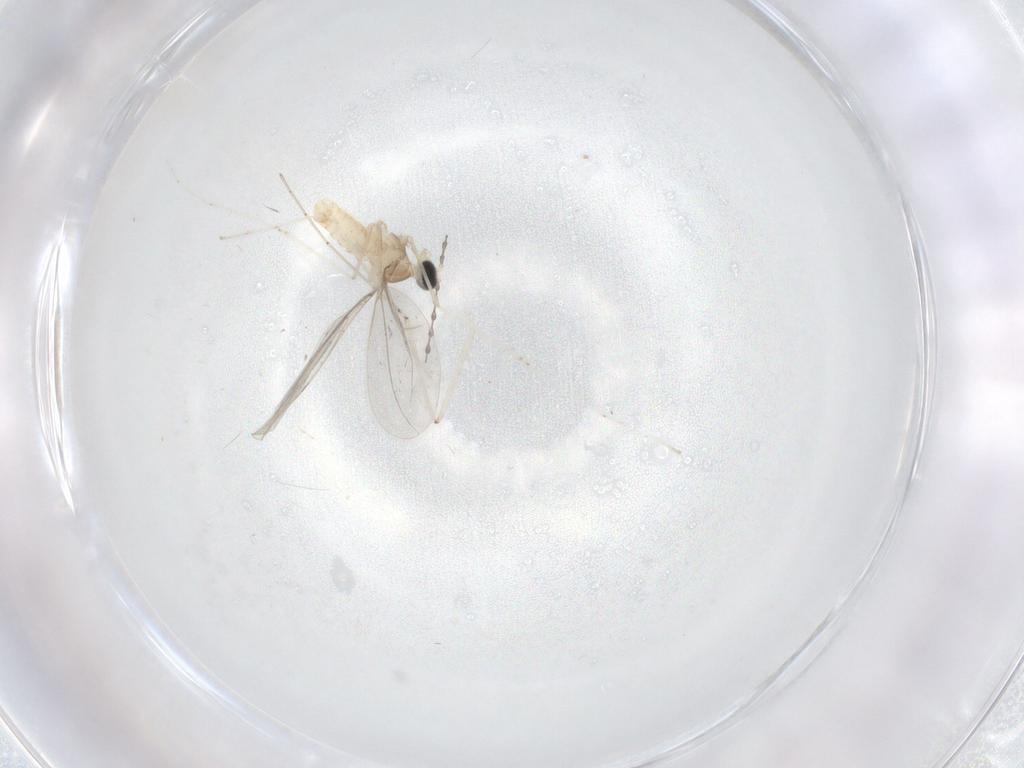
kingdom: Animalia
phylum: Arthropoda
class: Insecta
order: Diptera
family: Cecidomyiidae
